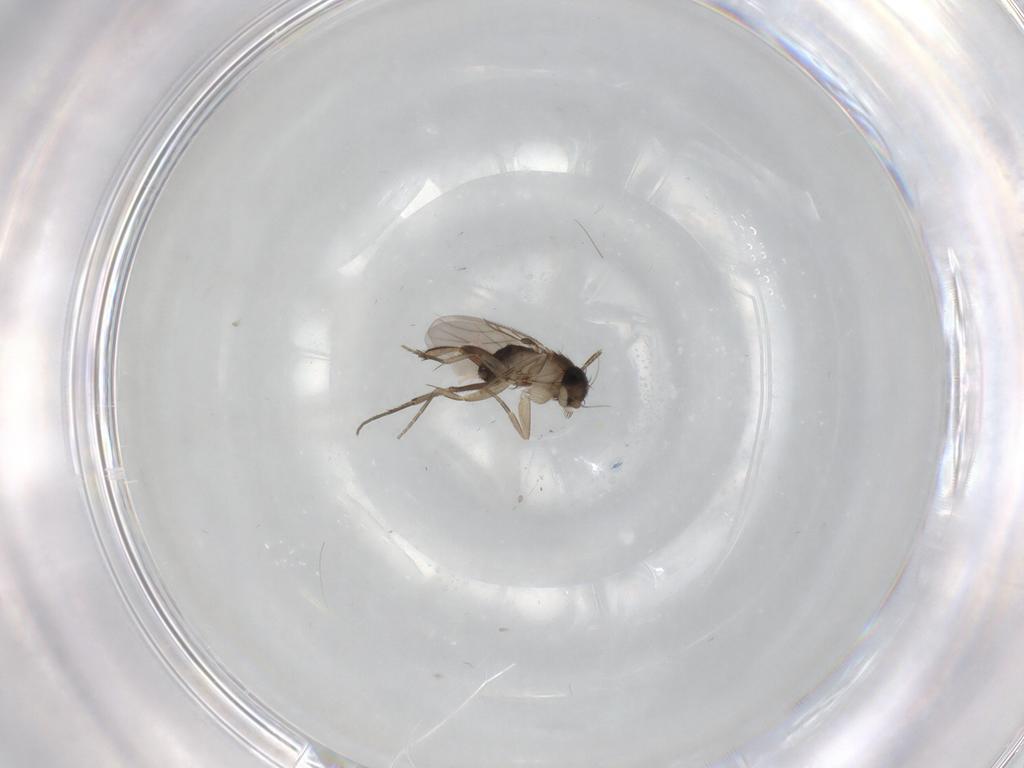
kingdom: Animalia
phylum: Arthropoda
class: Insecta
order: Diptera
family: Phoridae
